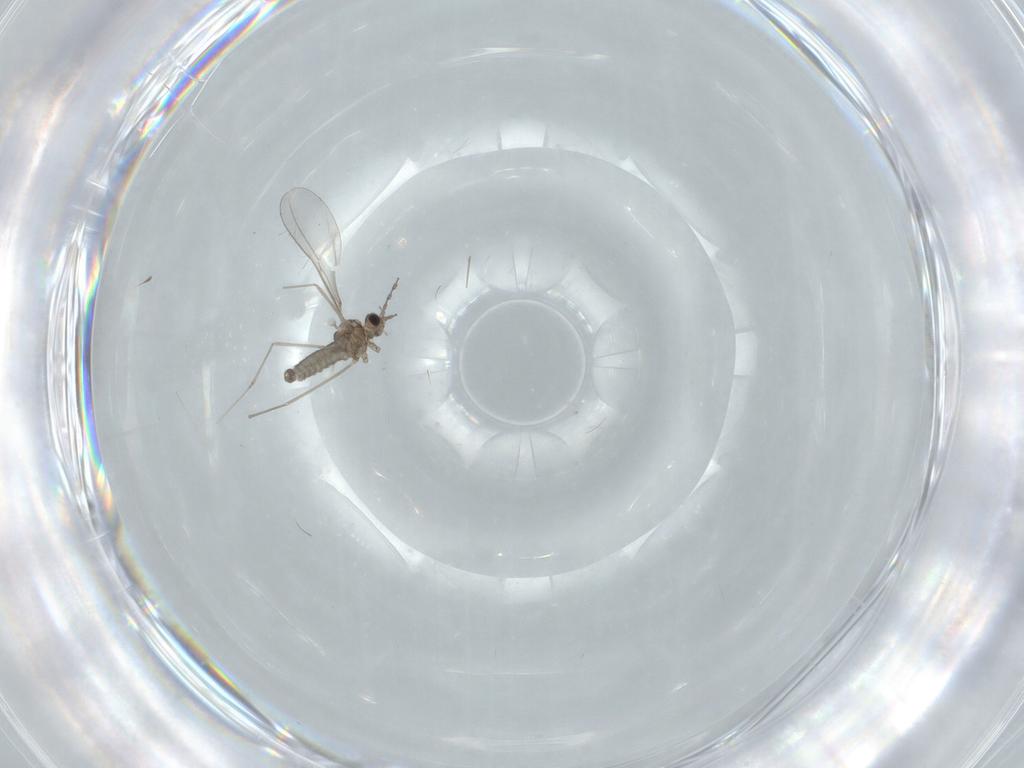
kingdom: Animalia
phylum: Arthropoda
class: Insecta
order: Diptera
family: Cecidomyiidae
